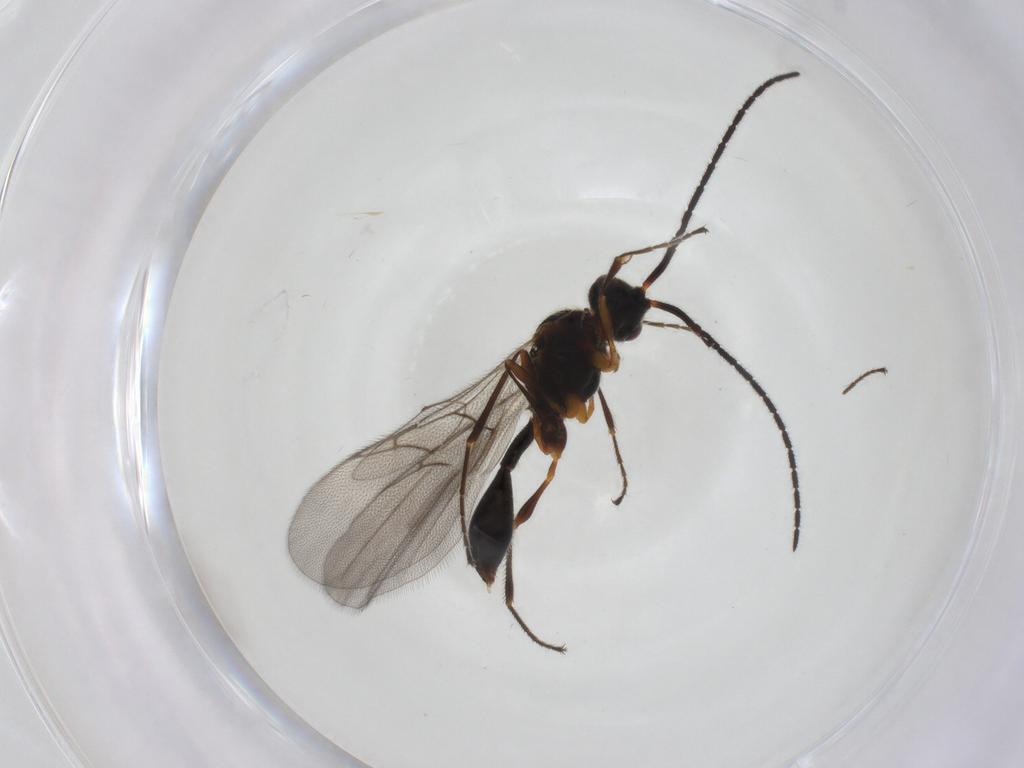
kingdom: Animalia
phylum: Arthropoda
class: Insecta
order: Hymenoptera
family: Diapriidae
